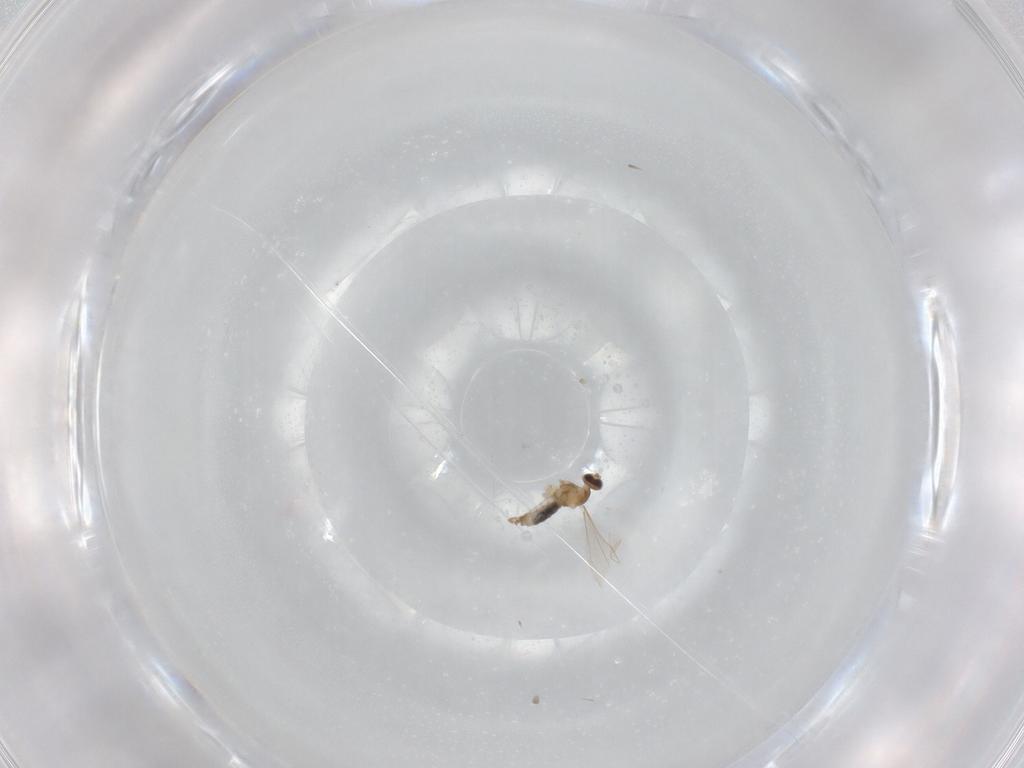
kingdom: Animalia
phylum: Arthropoda
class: Insecta
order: Diptera
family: Cecidomyiidae
